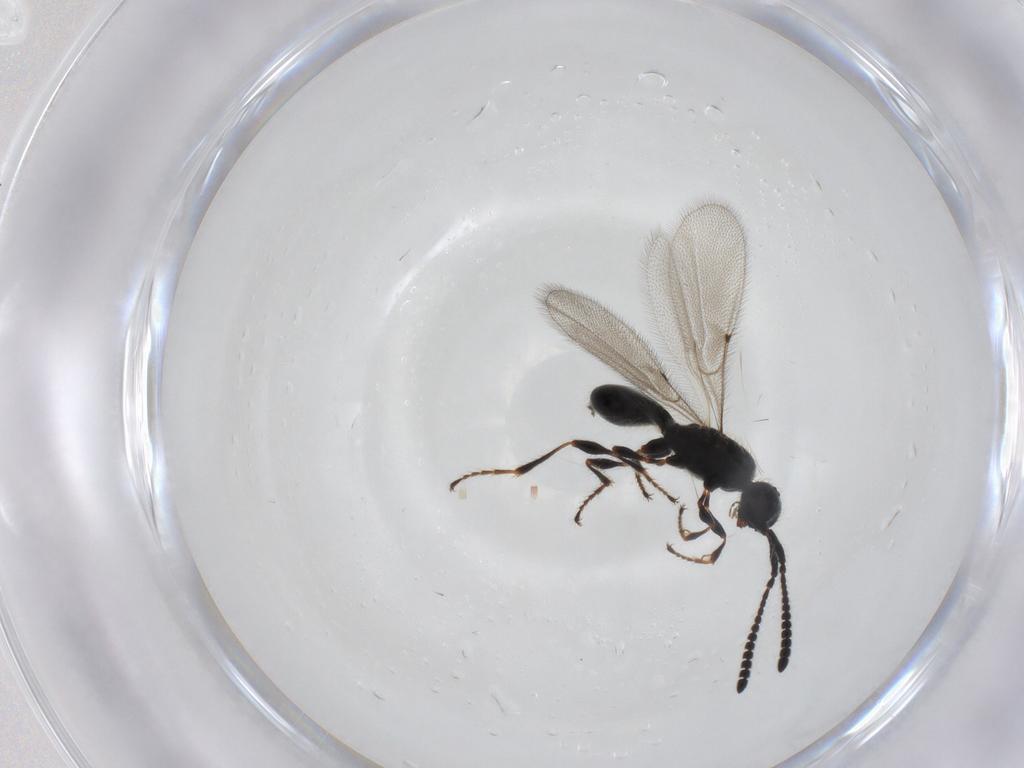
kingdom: Animalia
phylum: Arthropoda
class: Insecta
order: Hymenoptera
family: Diapriidae
